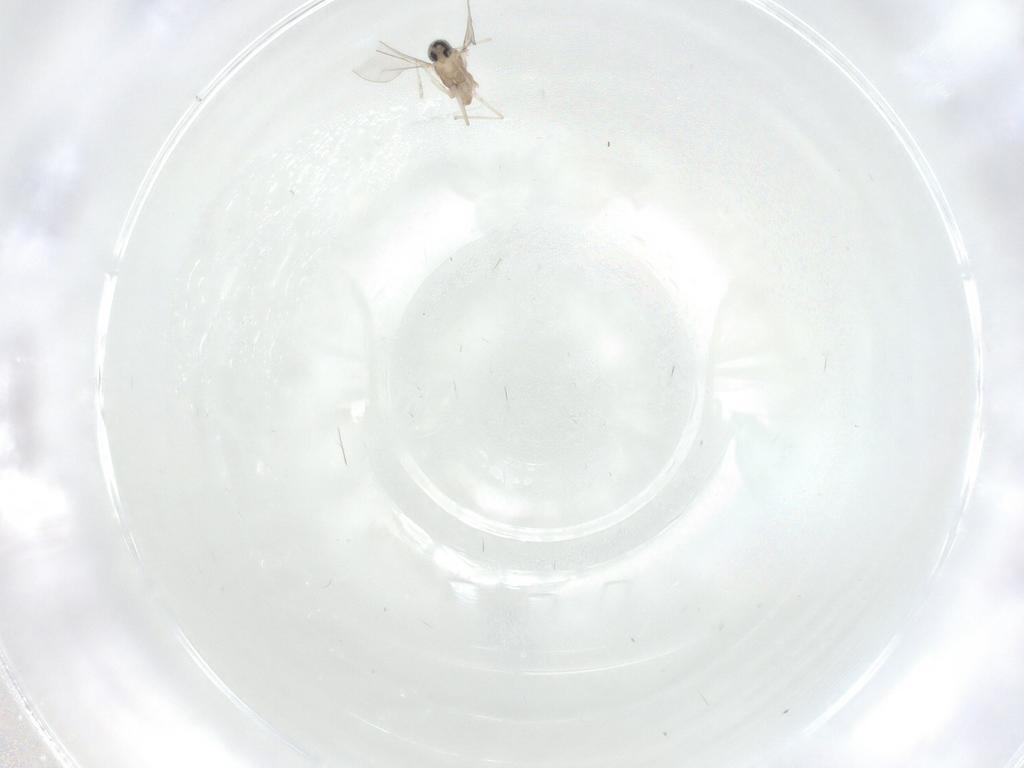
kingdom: Animalia
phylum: Arthropoda
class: Insecta
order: Diptera
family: Cecidomyiidae
